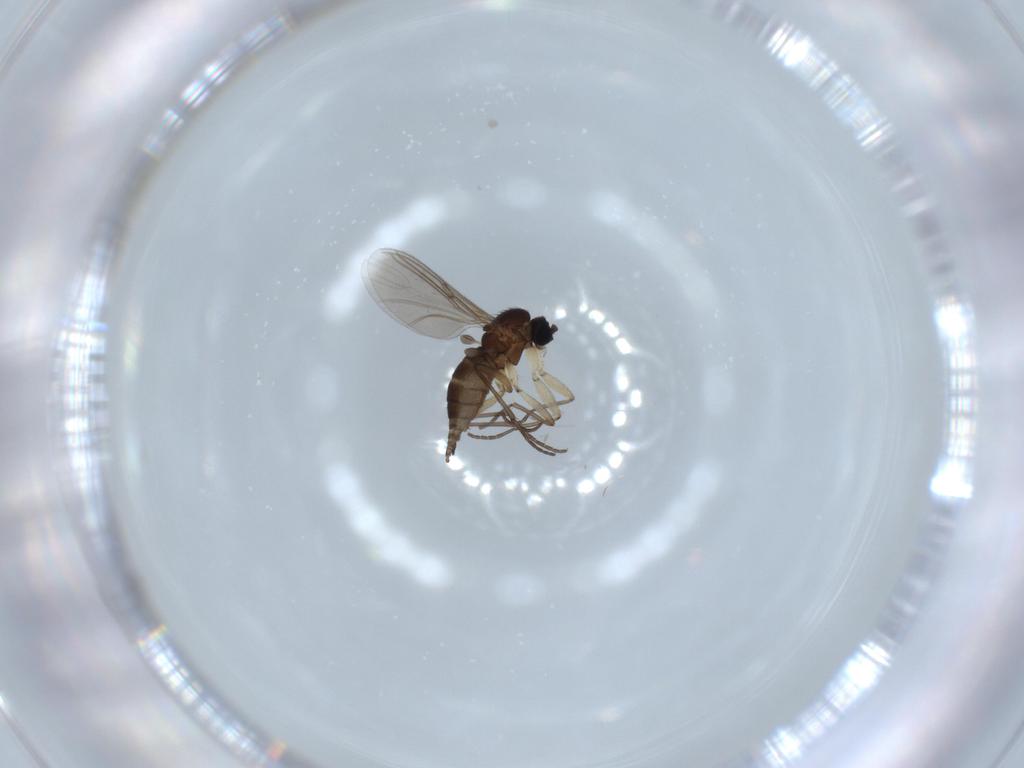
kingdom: Animalia
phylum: Arthropoda
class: Insecta
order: Diptera
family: Sciaridae
